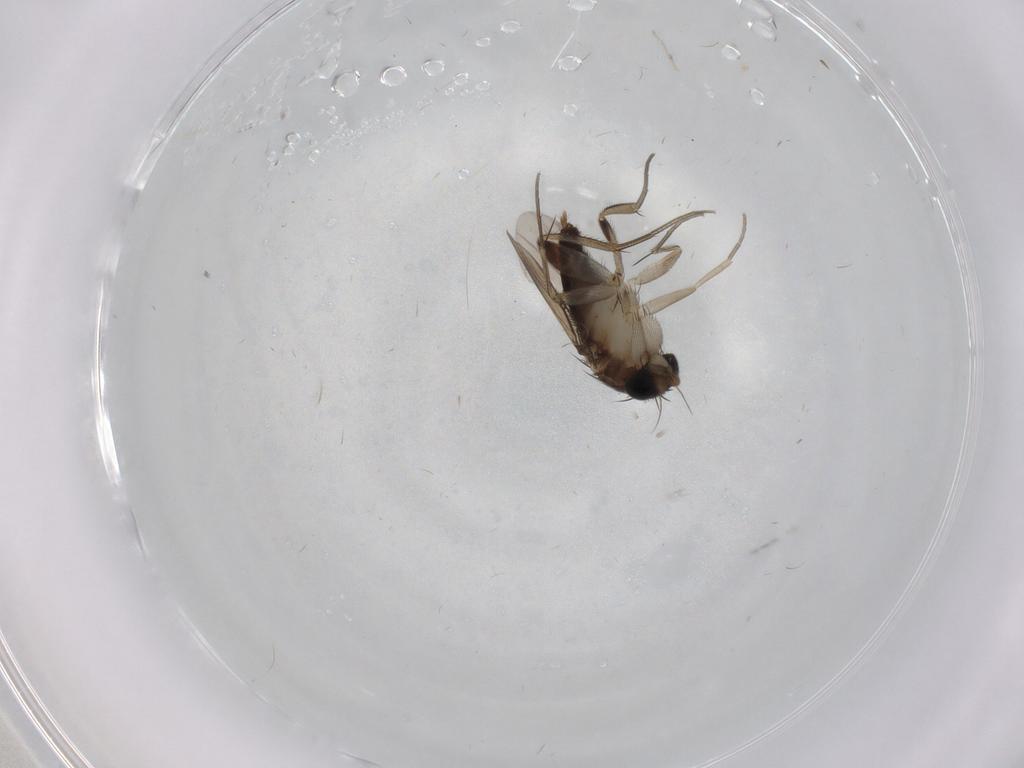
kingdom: Animalia
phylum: Arthropoda
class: Insecta
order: Diptera
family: Phoridae
